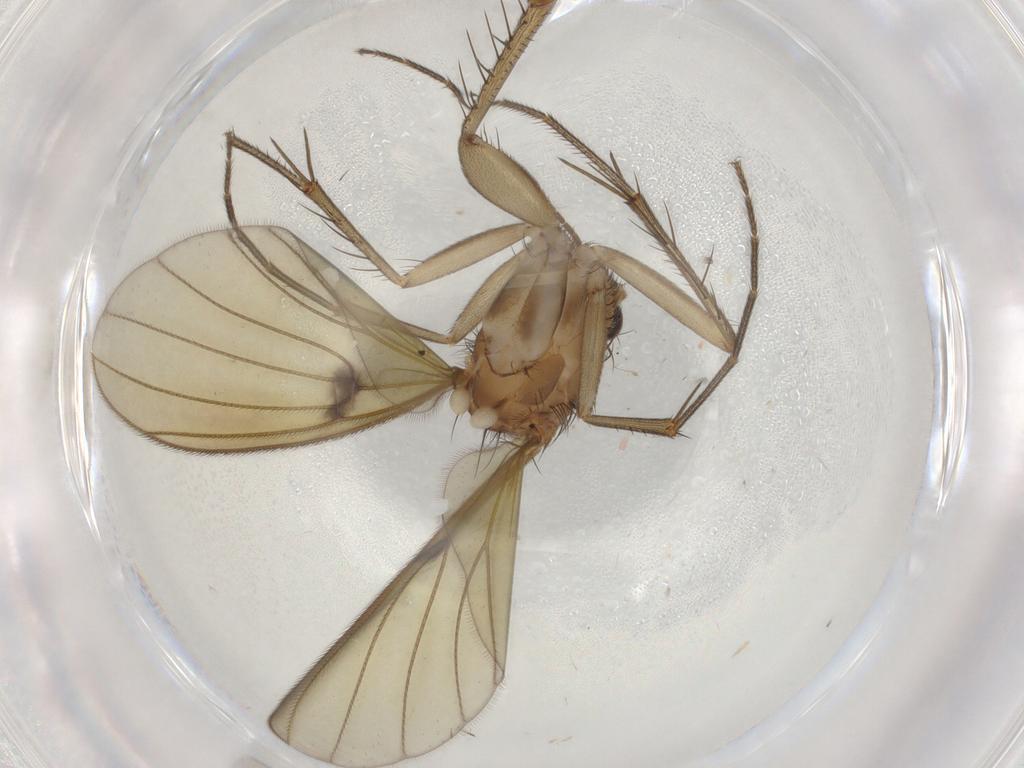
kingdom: Animalia
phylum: Arthropoda
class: Insecta
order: Diptera
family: Mycetophilidae
